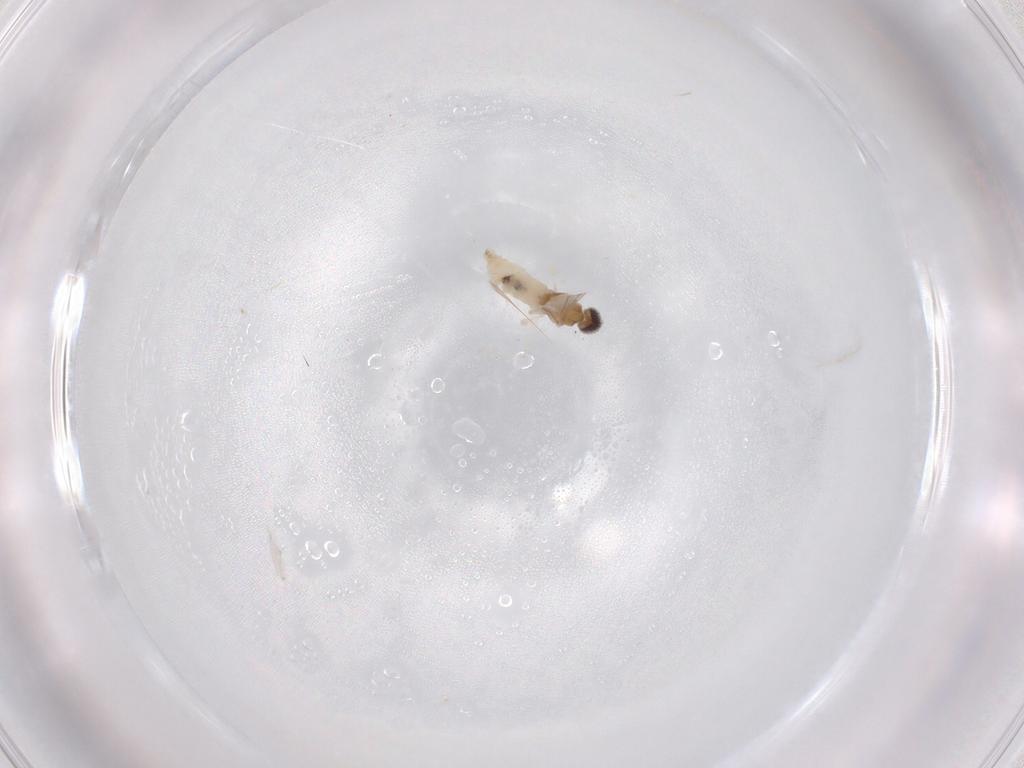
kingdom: Animalia
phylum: Arthropoda
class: Insecta
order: Diptera
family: Cecidomyiidae
